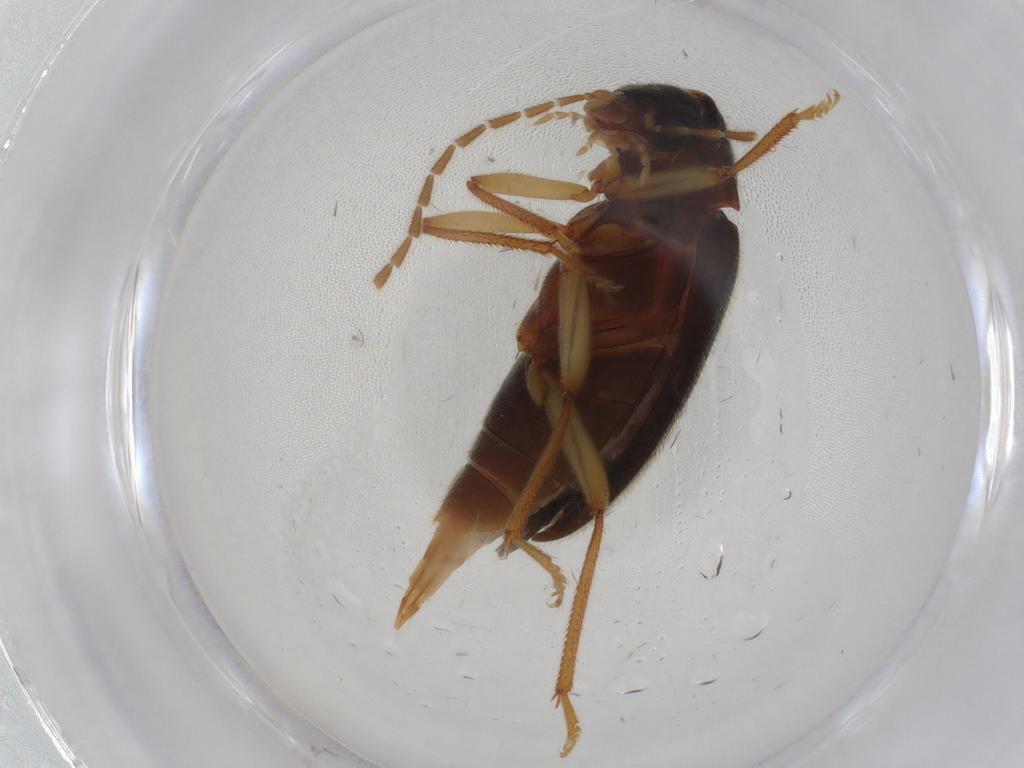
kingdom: Animalia
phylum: Arthropoda
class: Insecta
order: Coleoptera
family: Ptilodactylidae
